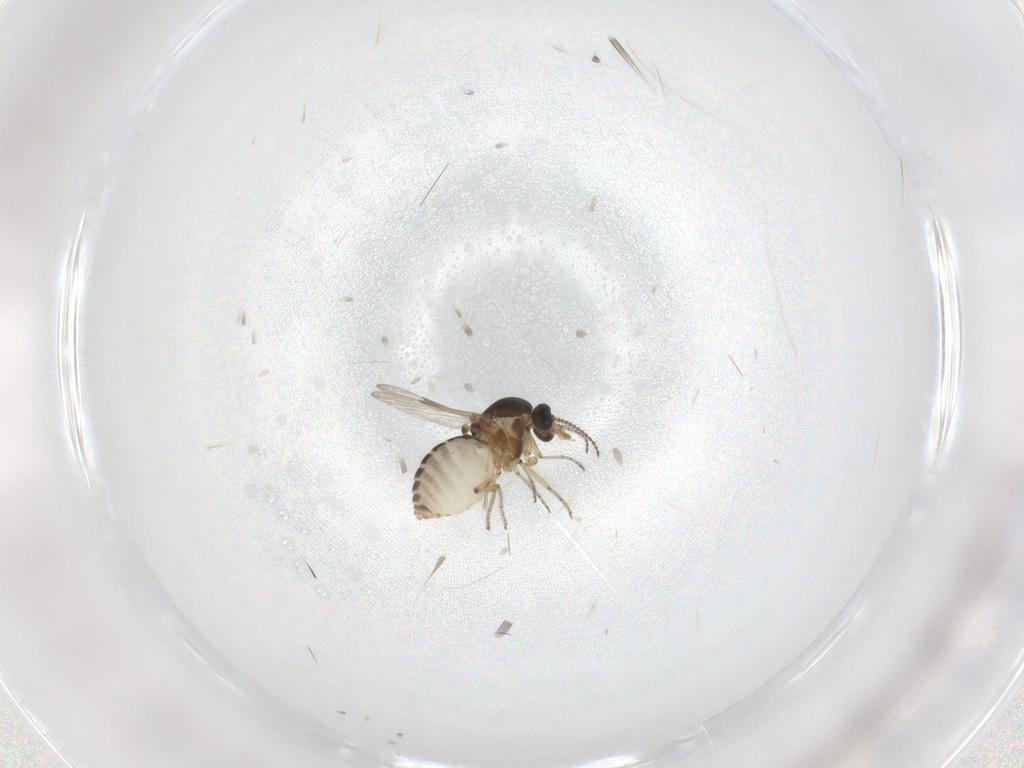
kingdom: Animalia
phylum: Arthropoda
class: Insecta
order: Diptera
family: Ceratopogonidae
